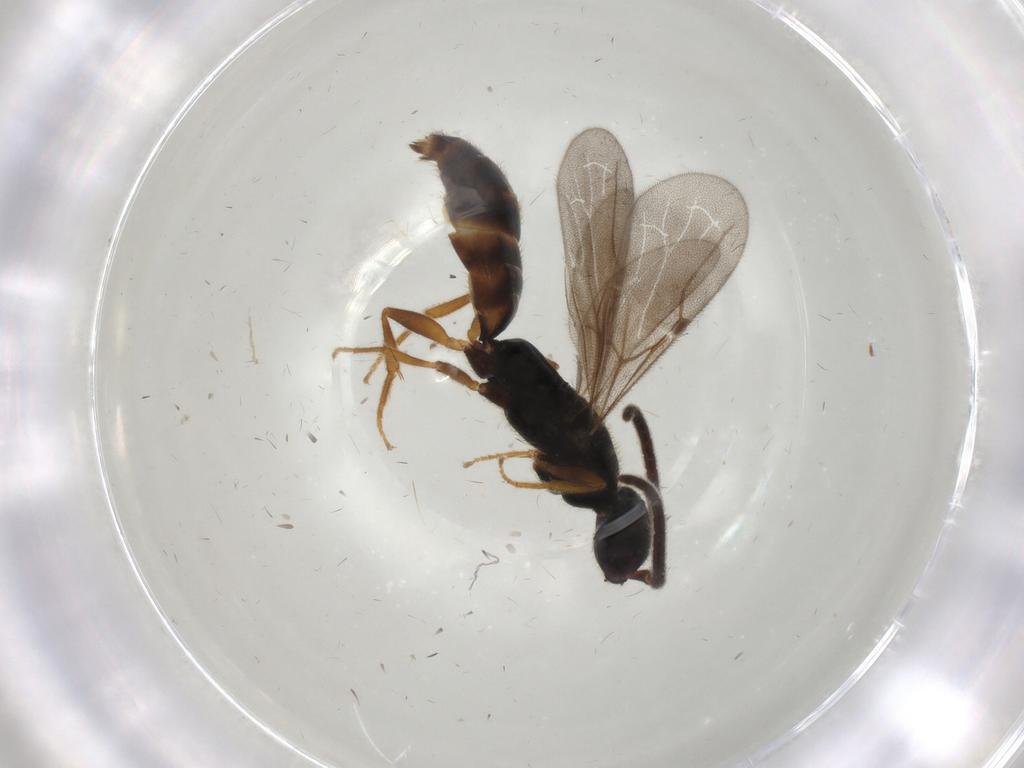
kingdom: Animalia
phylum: Arthropoda
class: Insecta
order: Hymenoptera
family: Bethylidae
